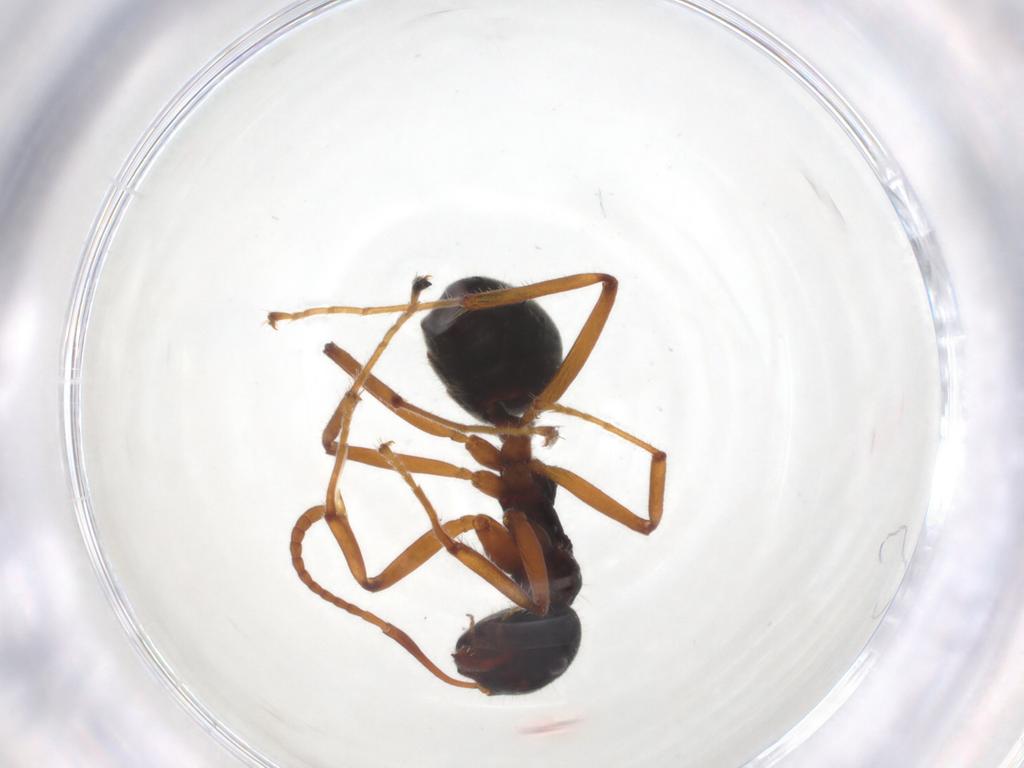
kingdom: Animalia
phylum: Arthropoda
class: Insecta
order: Hymenoptera
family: Formicidae
